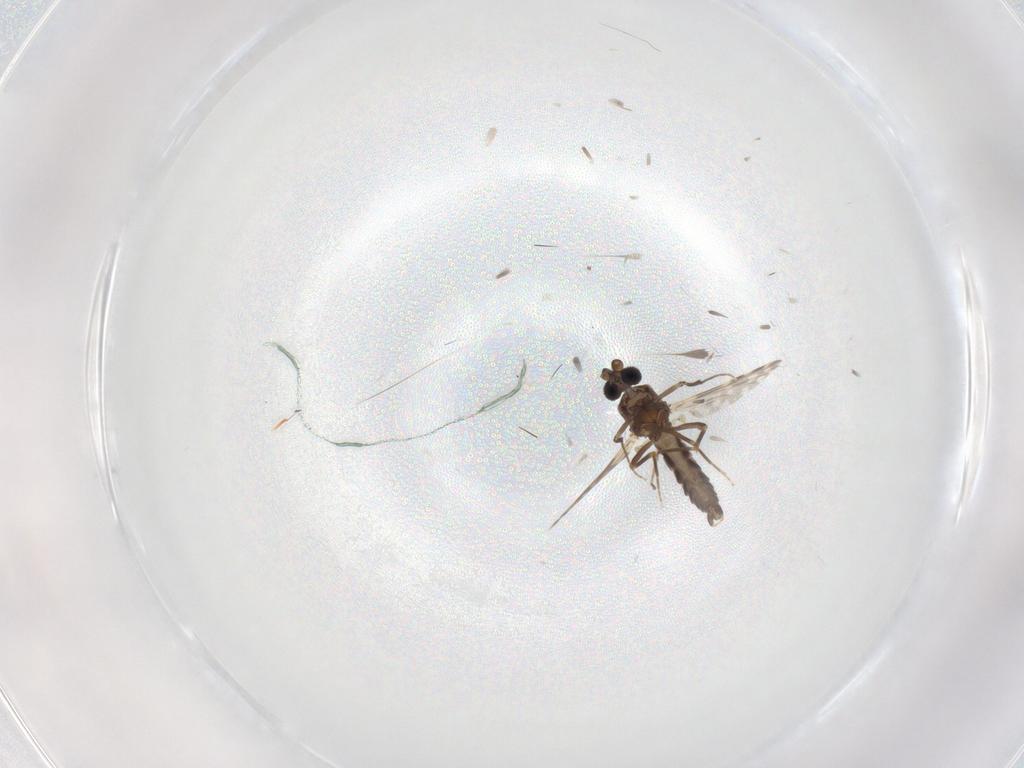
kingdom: Animalia
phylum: Arthropoda
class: Insecta
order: Diptera
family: Ceratopogonidae
